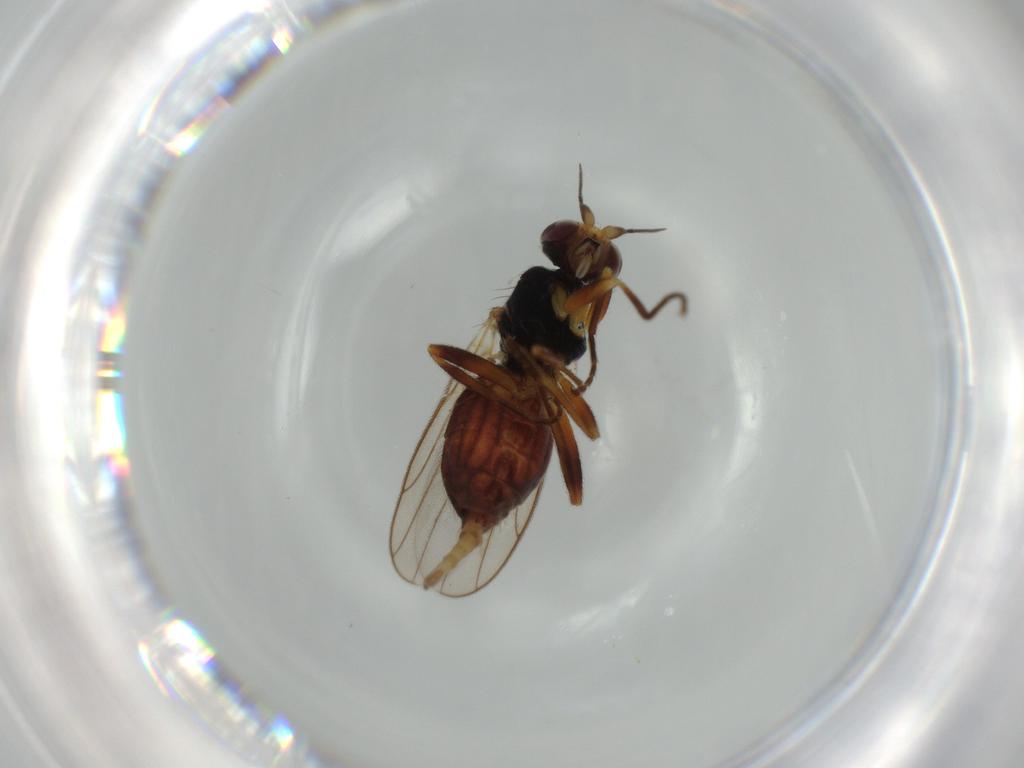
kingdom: Animalia
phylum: Arthropoda
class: Insecta
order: Diptera
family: Chloropidae
